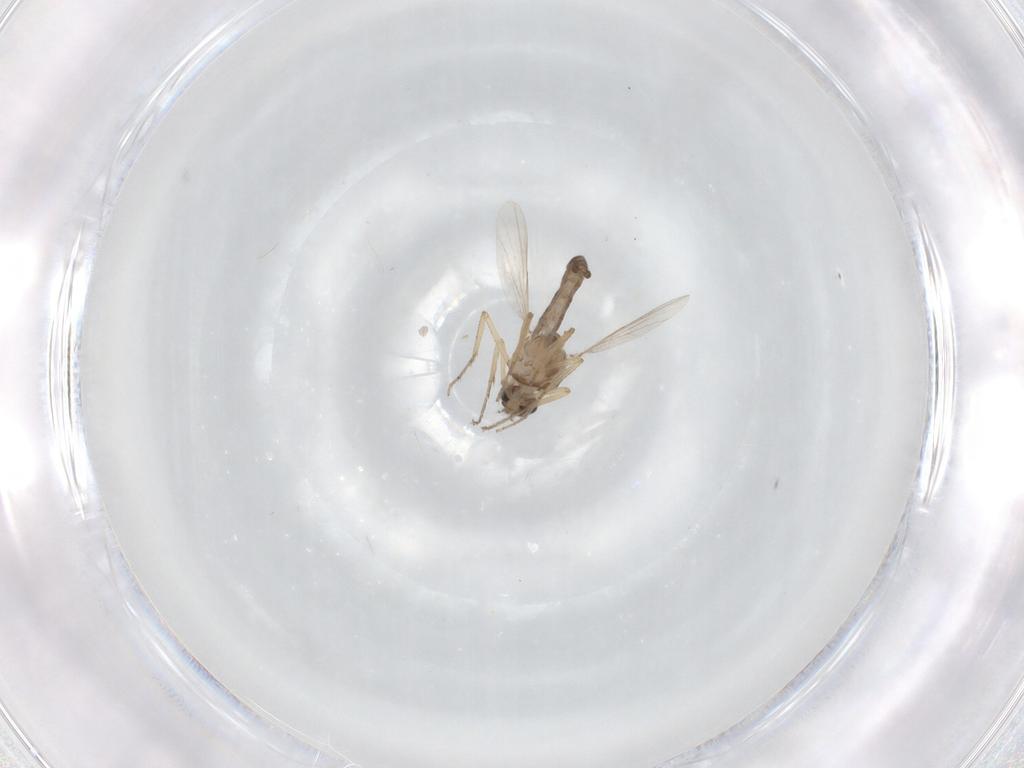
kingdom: Animalia
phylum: Arthropoda
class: Insecta
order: Diptera
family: Ceratopogonidae
